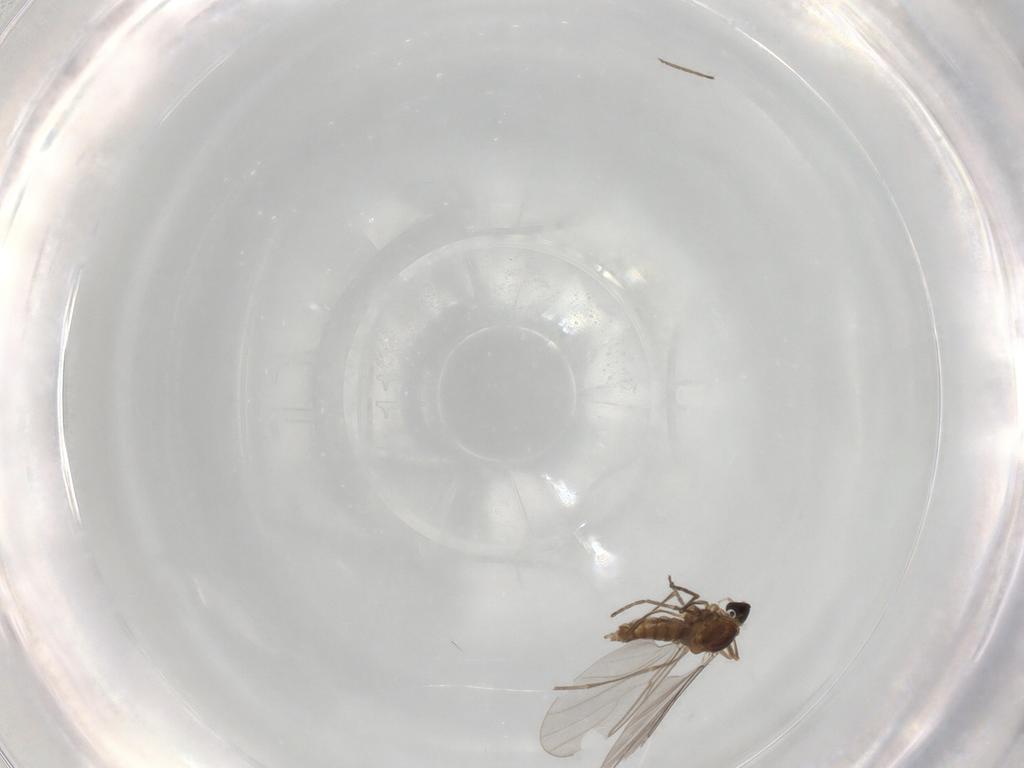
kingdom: Animalia
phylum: Arthropoda
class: Insecta
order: Diptera
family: Cecidomyiidae
